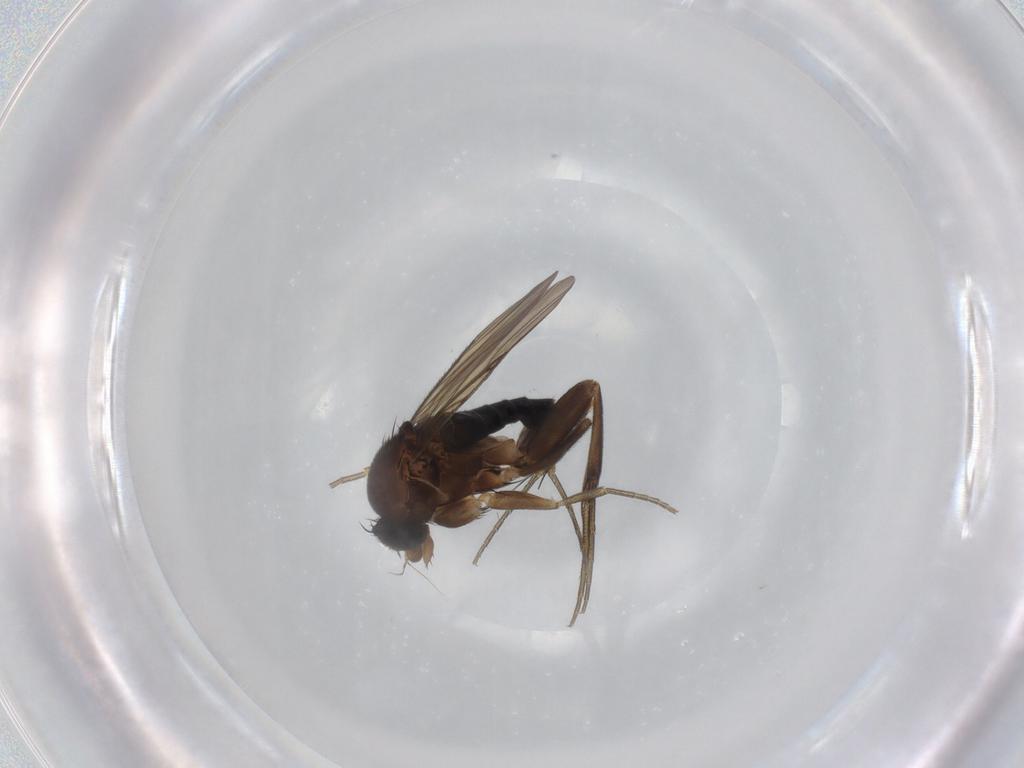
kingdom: Animalia
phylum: Arthropoda
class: Insecta
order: Diptera
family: Phoridae
